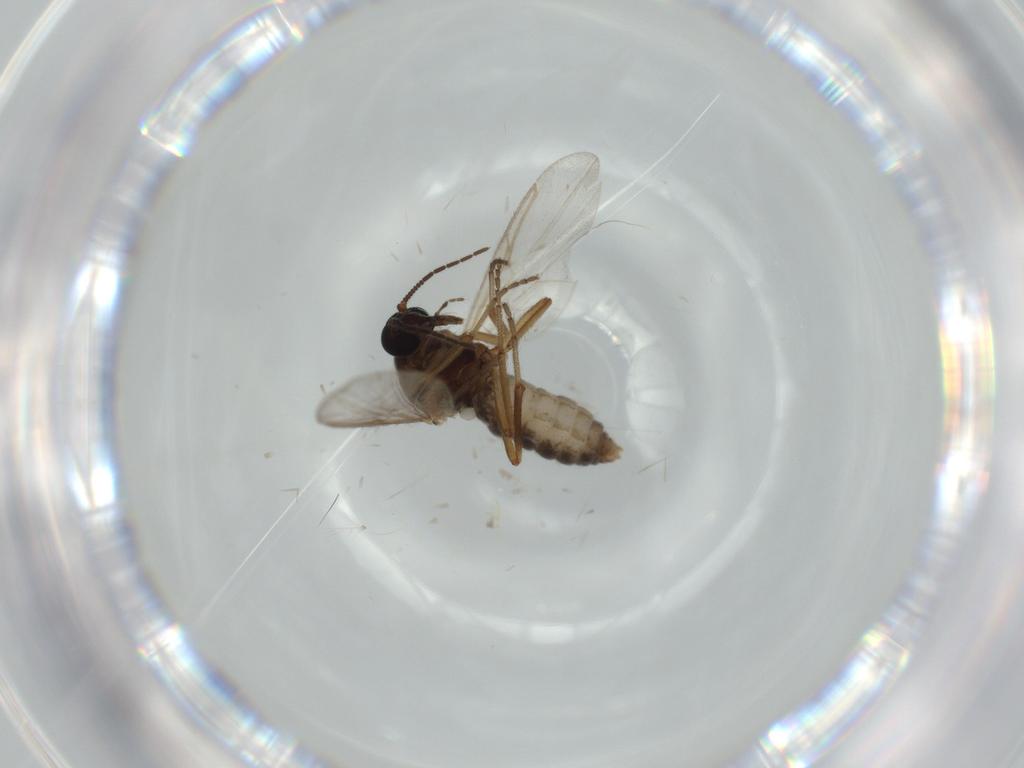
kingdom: Animalia
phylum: Arthropoda
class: Insecta
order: Diptera
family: Ceratopogonidae
